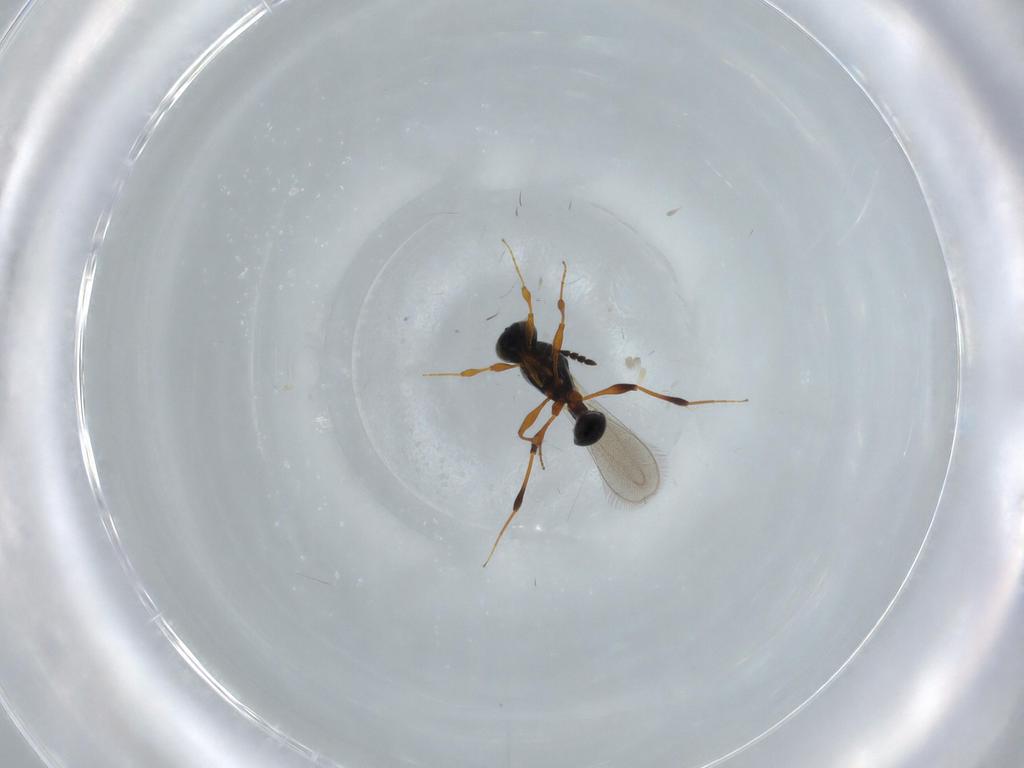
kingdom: Animalia
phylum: Arthropoda
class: Insecta
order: Hymenoptera
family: Platygastridae
